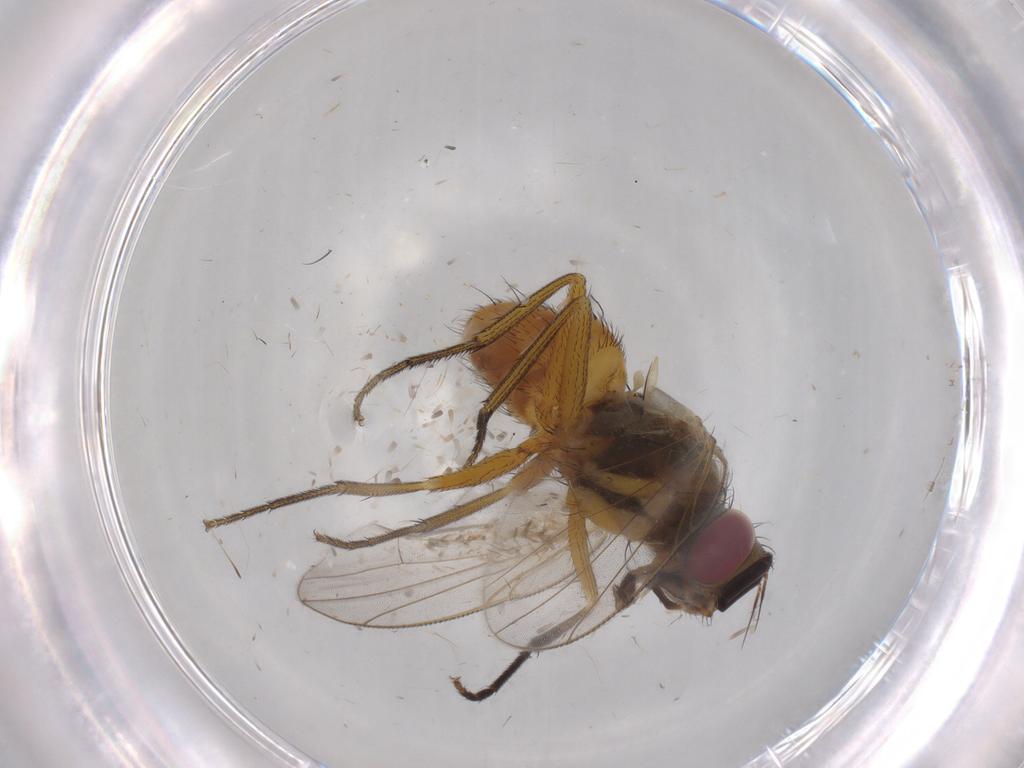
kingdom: Animalia
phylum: Arthropoda
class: Insecta
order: Diptera
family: Muscidae
